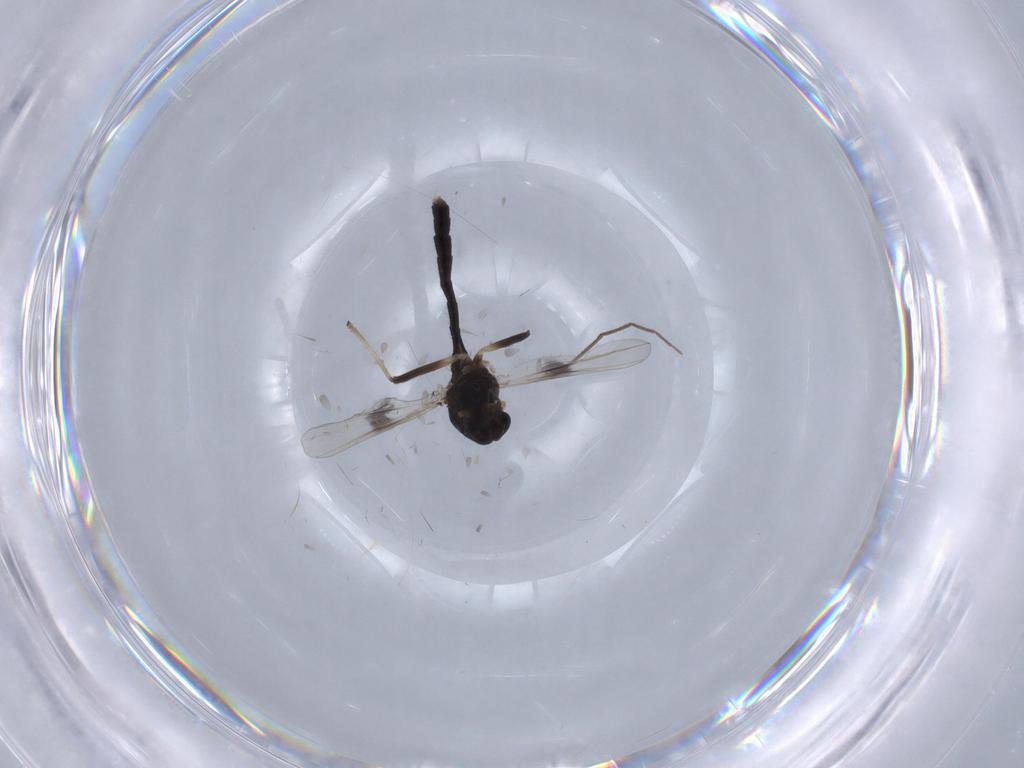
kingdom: Animalia
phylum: Arthropoda
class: Insecta
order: Diptera
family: Chironomidae
